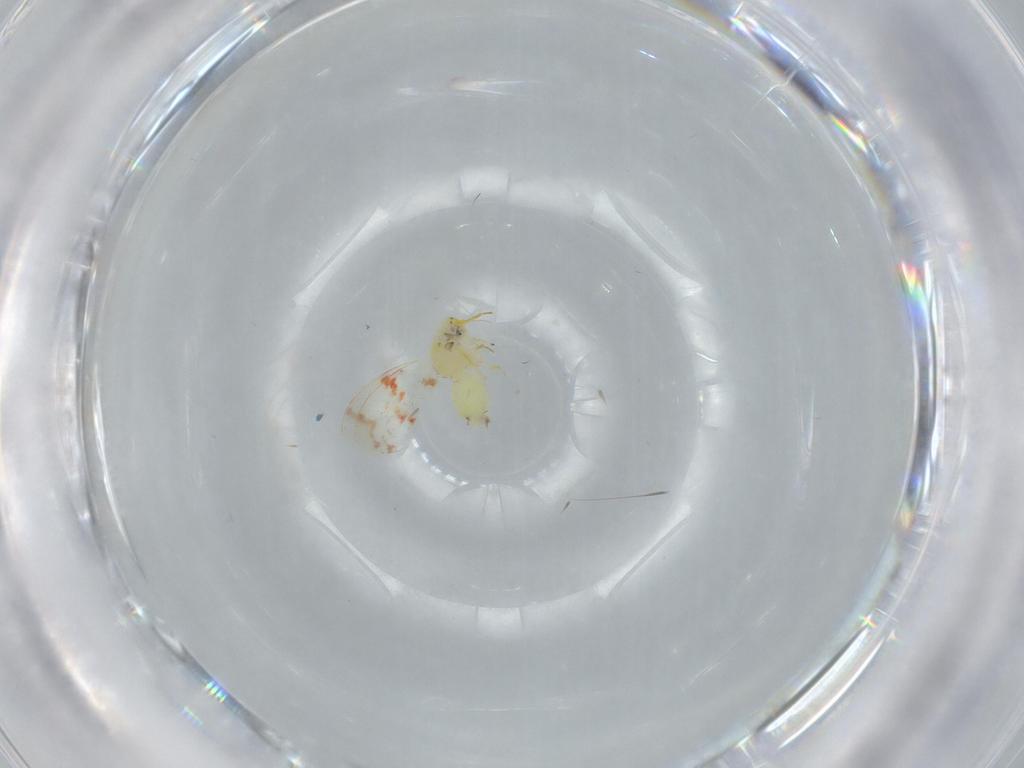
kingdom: Animalia
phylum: Arthropoda
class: Insecta
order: Hemiptera
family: Aleyrodidae
